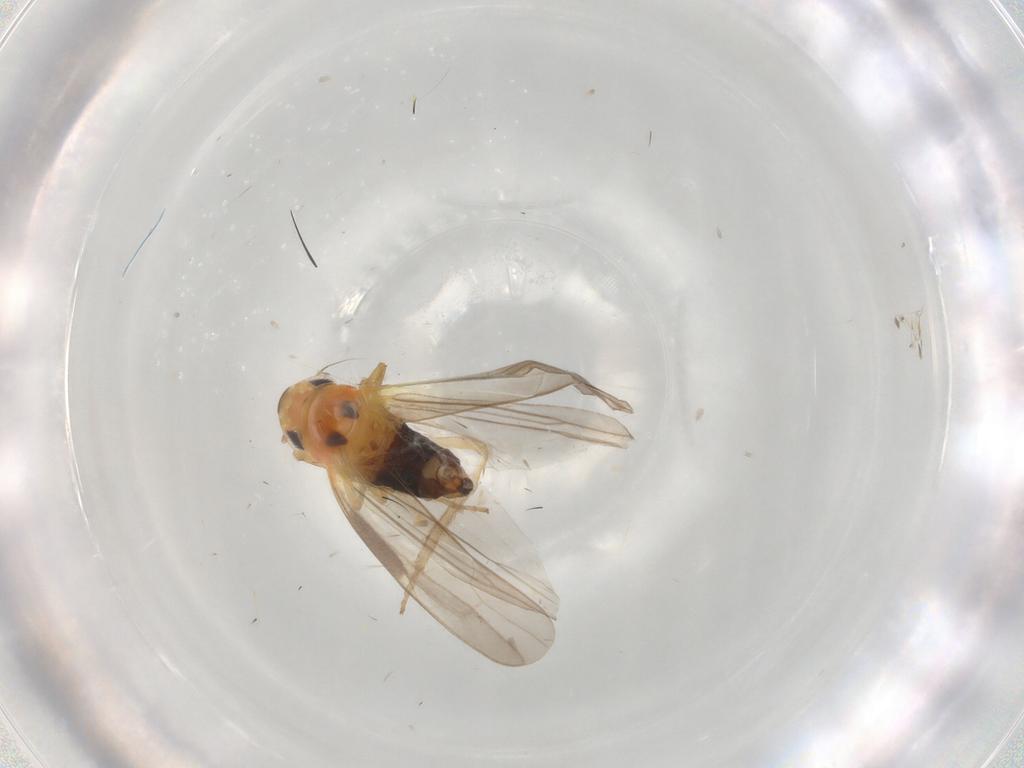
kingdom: Animalia
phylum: Arthropoda
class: Insecta
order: Hemiptera
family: Cicadellidae
